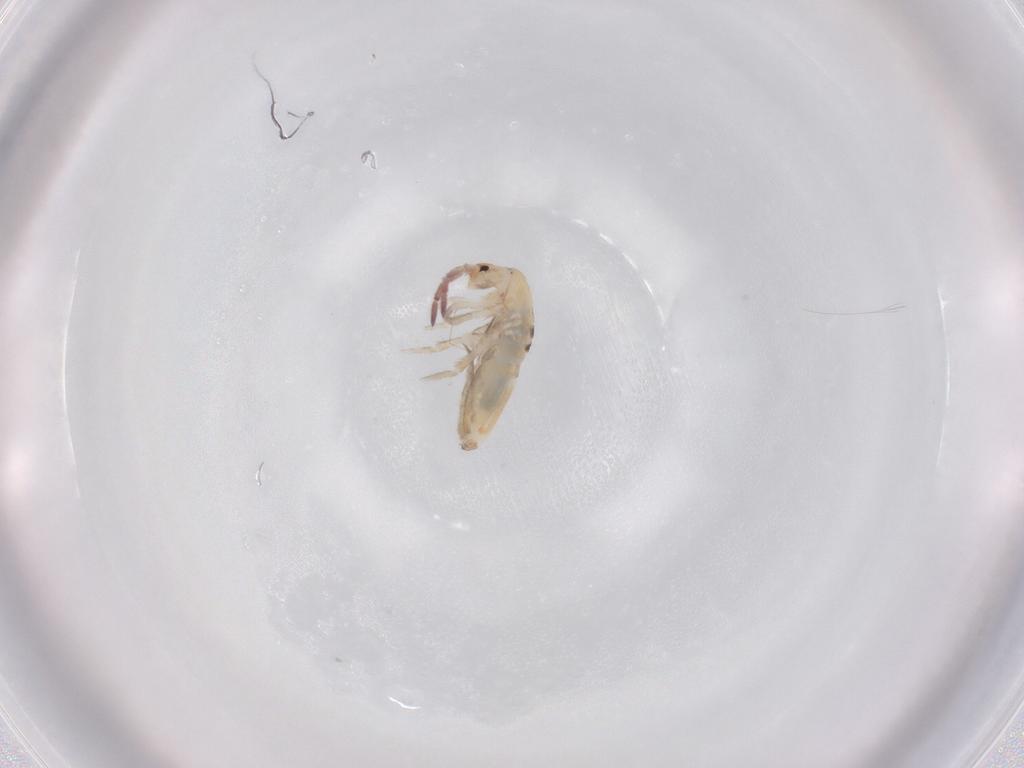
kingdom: Animalia
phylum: Arthropoda
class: Collembola
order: Entomobryomorpha
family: Entomobryidae
